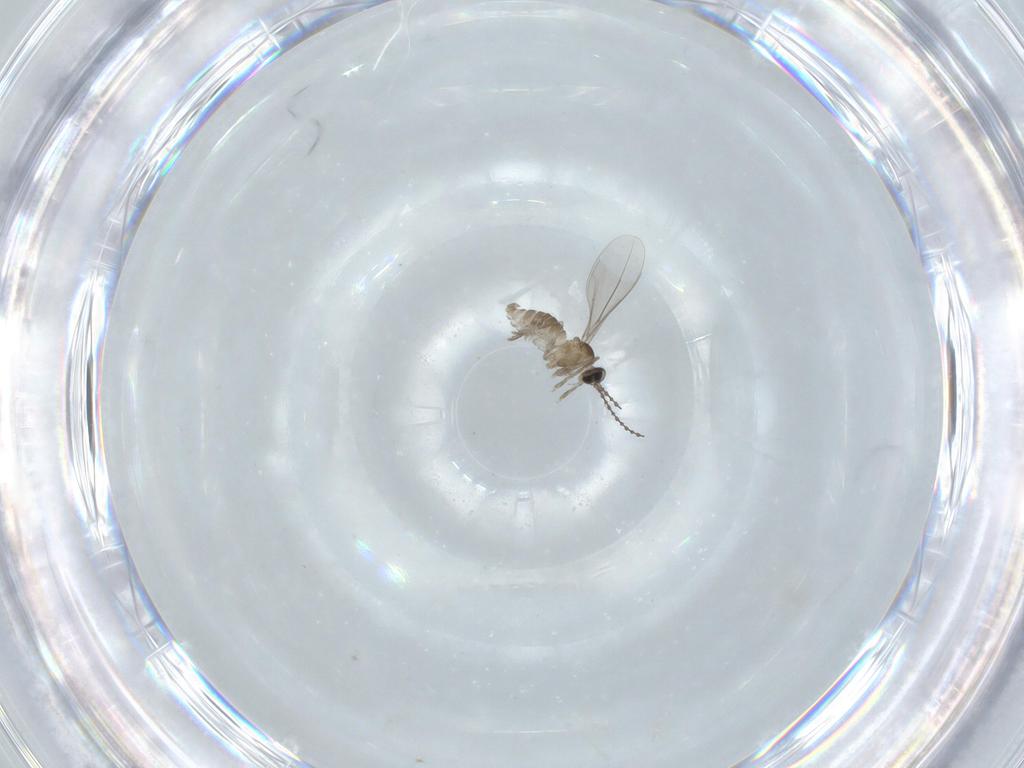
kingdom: Animalia
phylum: Arthropoda
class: Insecta
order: Diptera
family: Cecidomyiidae
